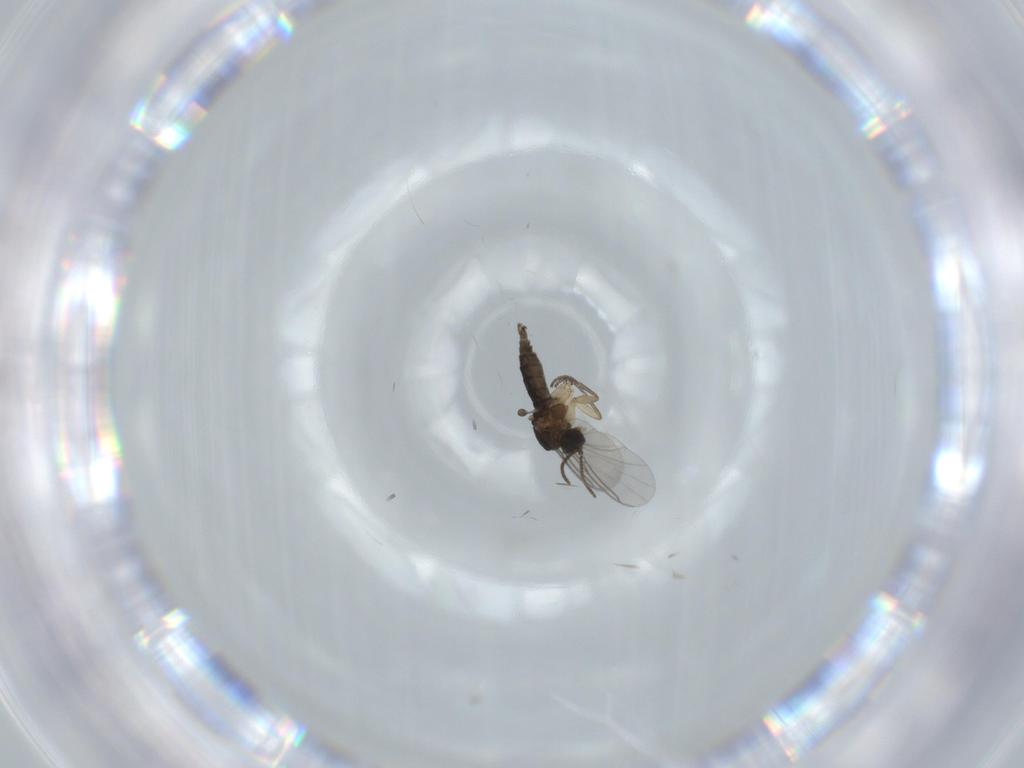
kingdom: Animalia
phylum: Arthropoda
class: Insecta
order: Diptera
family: Sciaridae
